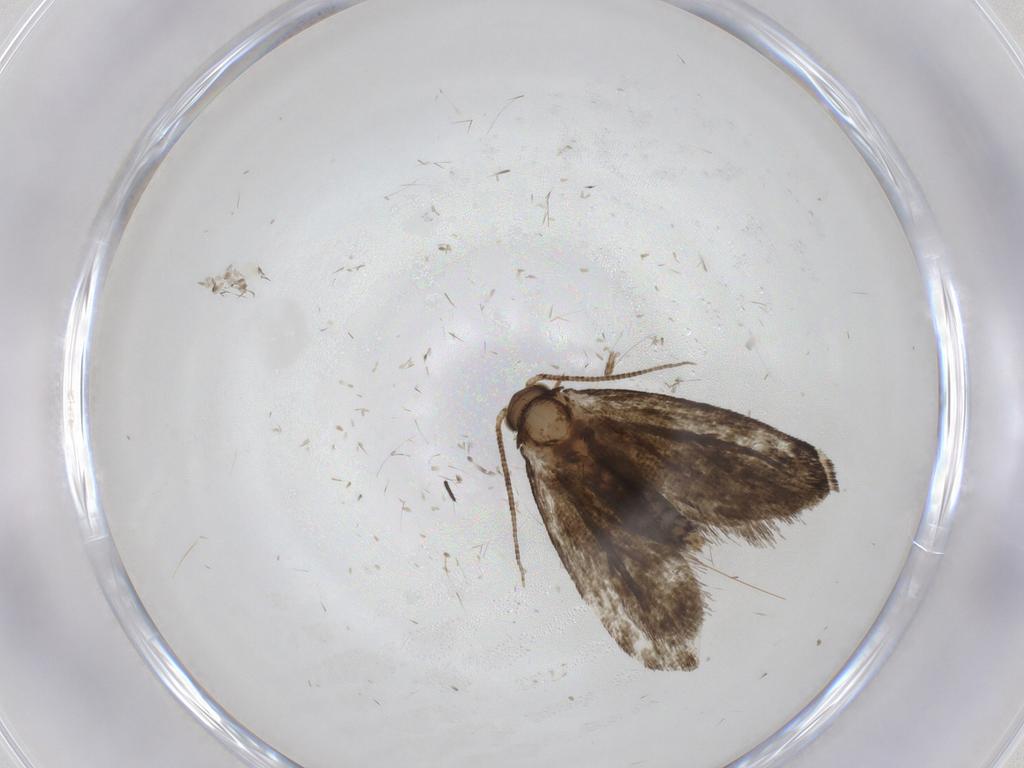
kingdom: Animalia
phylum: Arthropoda
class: Insecta
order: Lepidoptera
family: Tineidae
